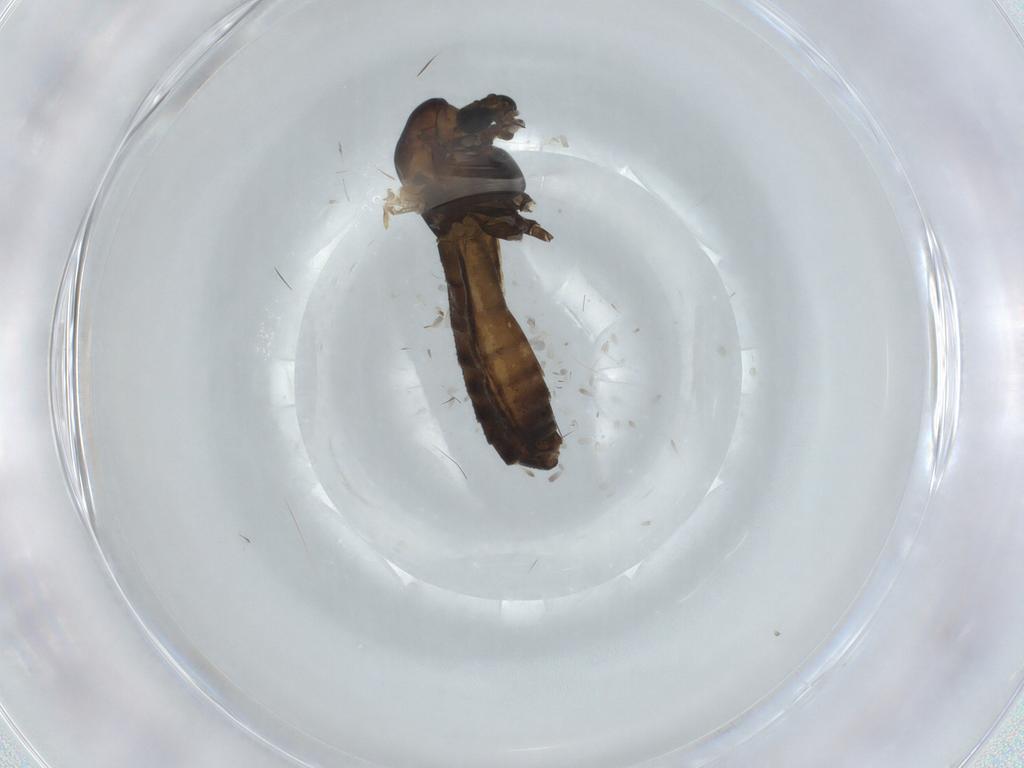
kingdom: Animalia
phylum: Arthropoda
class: Insecta
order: Diptera
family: Chironomidae
